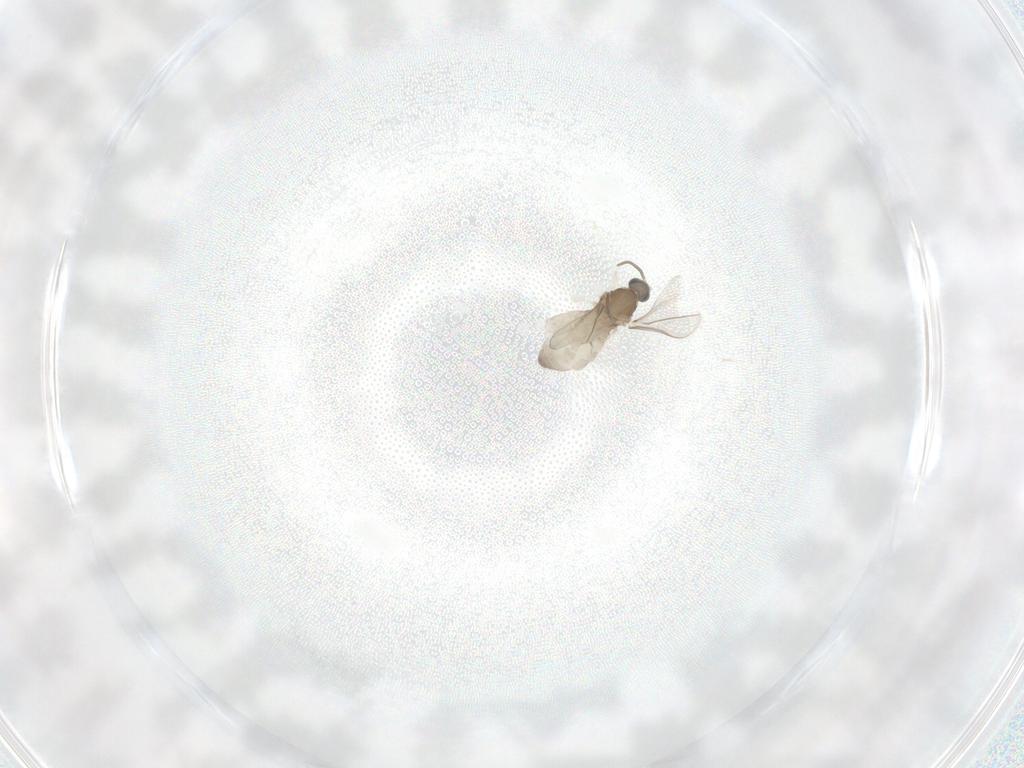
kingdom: Animalia
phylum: Arthropoda
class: Insecta
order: Diptera
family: Cecidomyiidae
